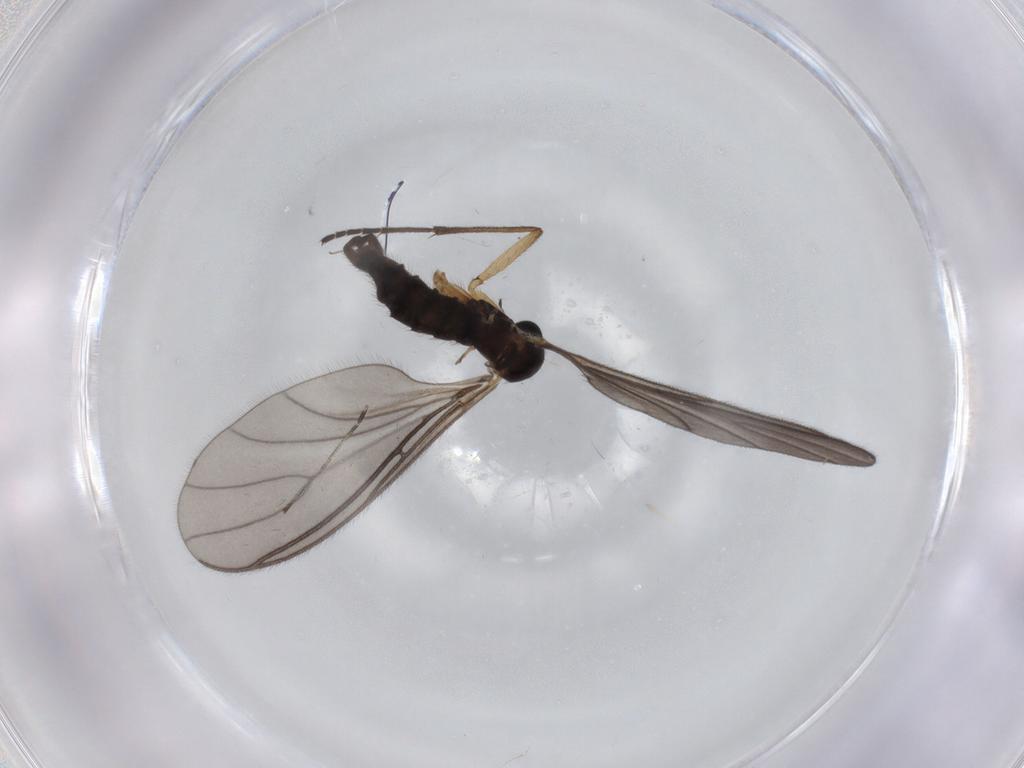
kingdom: Animalia
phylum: Arthropoda
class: Insecta
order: Diptera
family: Sciaridae
